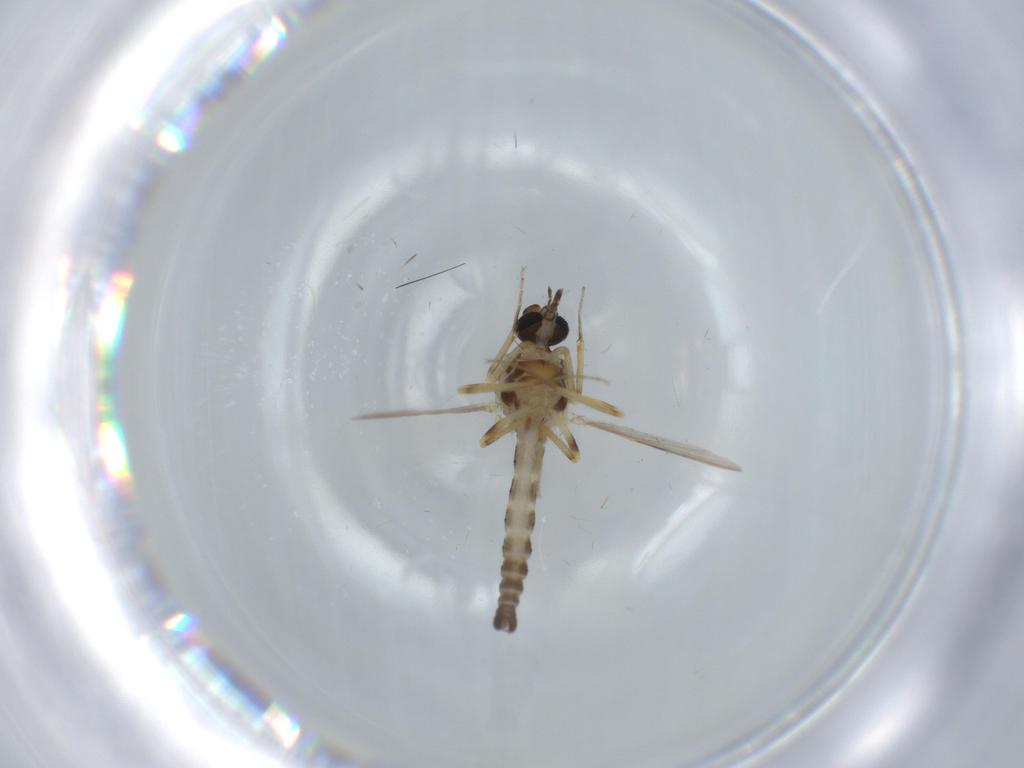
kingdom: Animalia
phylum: Arthropoda
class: Insecta
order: Diptera
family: Ceratopogonidae
